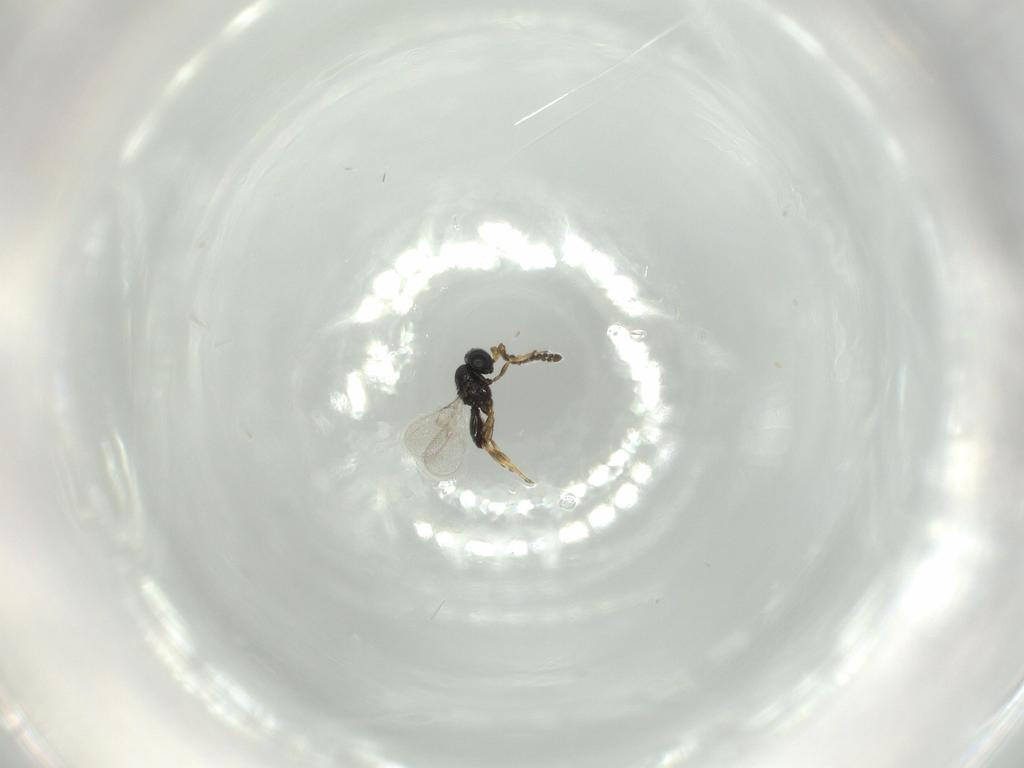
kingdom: Animalia
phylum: Arthropoda
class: Insecta
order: Hymenoptera
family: Scelionidae
